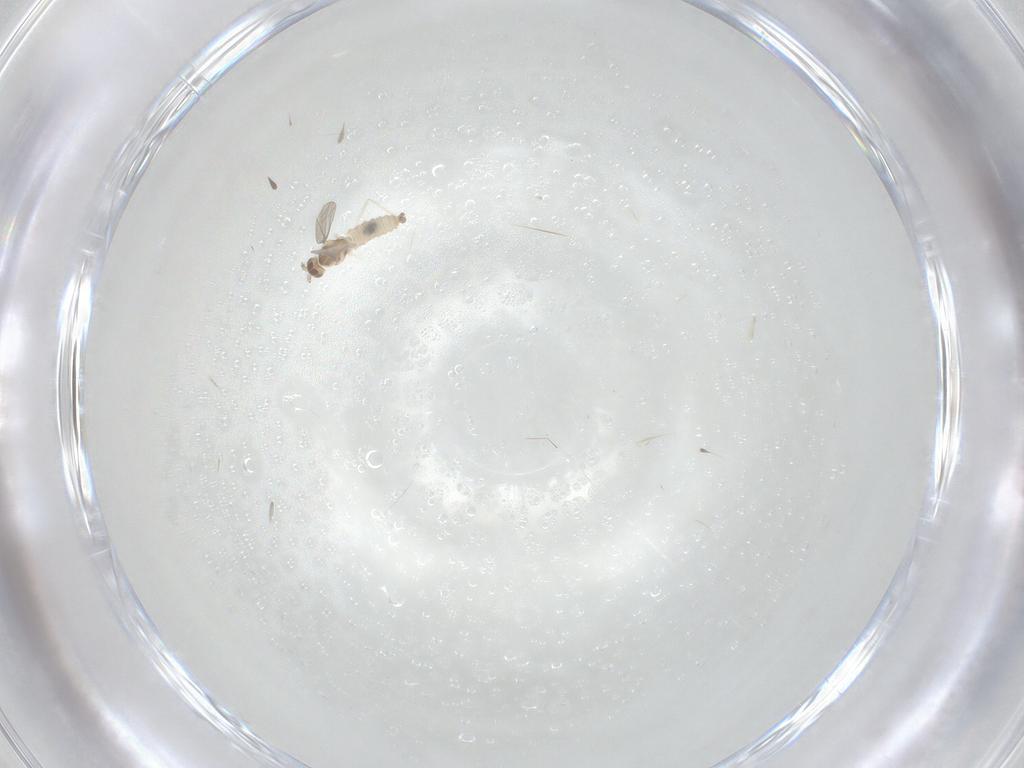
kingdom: Animalia
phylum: Arthropoda
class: Insecta
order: Diptera
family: Cecidomyiidae
